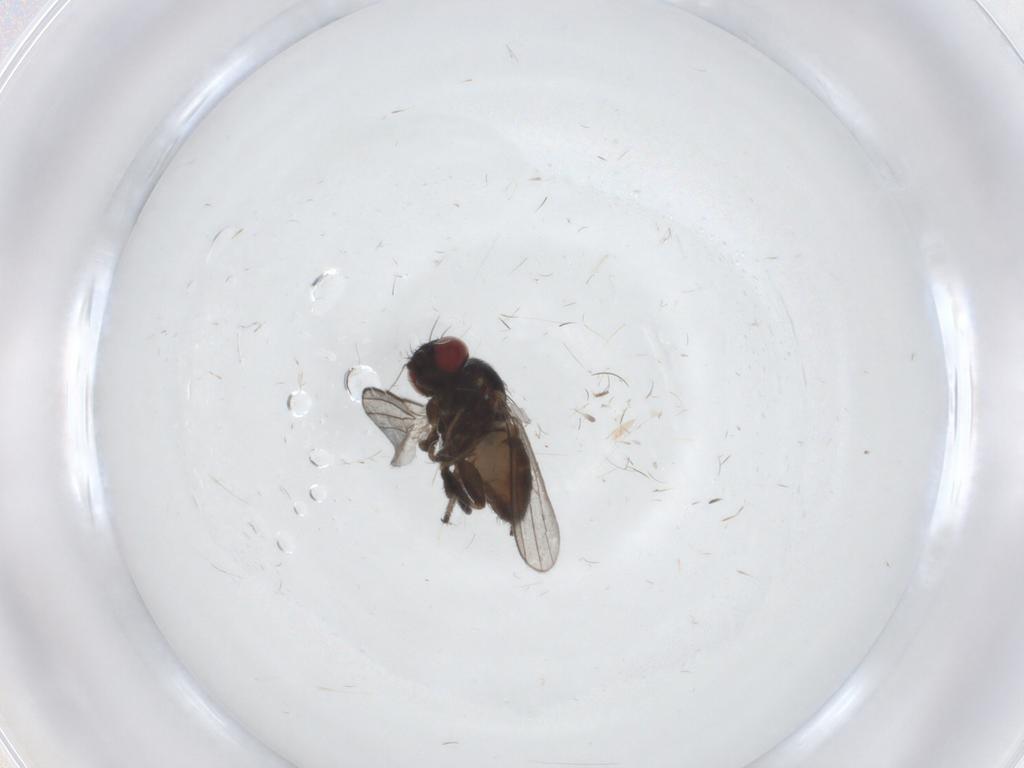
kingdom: Animalia
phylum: Arthropoda
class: Insecta
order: Diptera
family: Milichiidae
